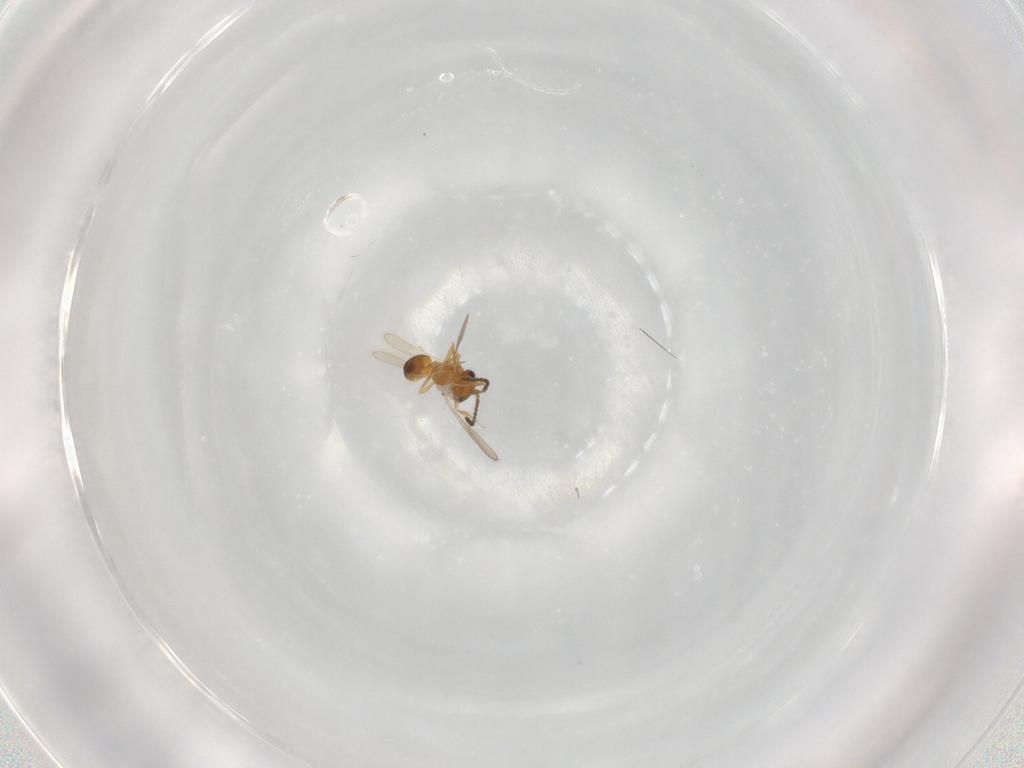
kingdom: Animalia
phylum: Arthropoda
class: Insecta
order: Hymenoptera
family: Scelionidae
